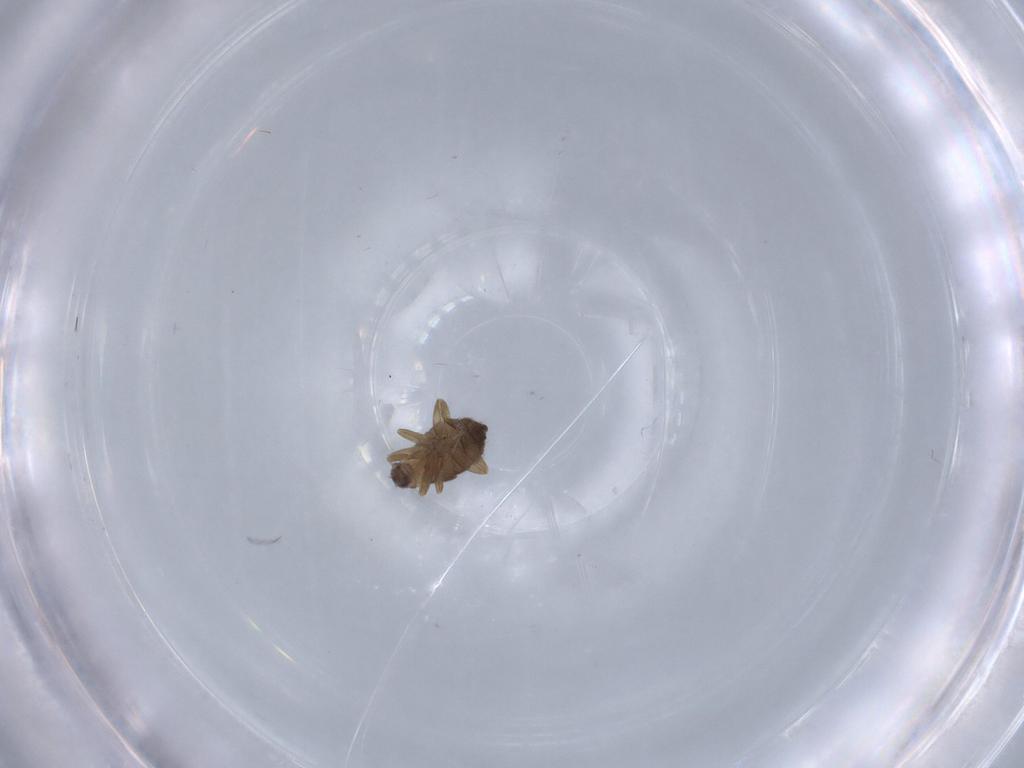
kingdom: Animalia
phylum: Arthropoda
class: Insecta
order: Diptera
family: Phoridae
